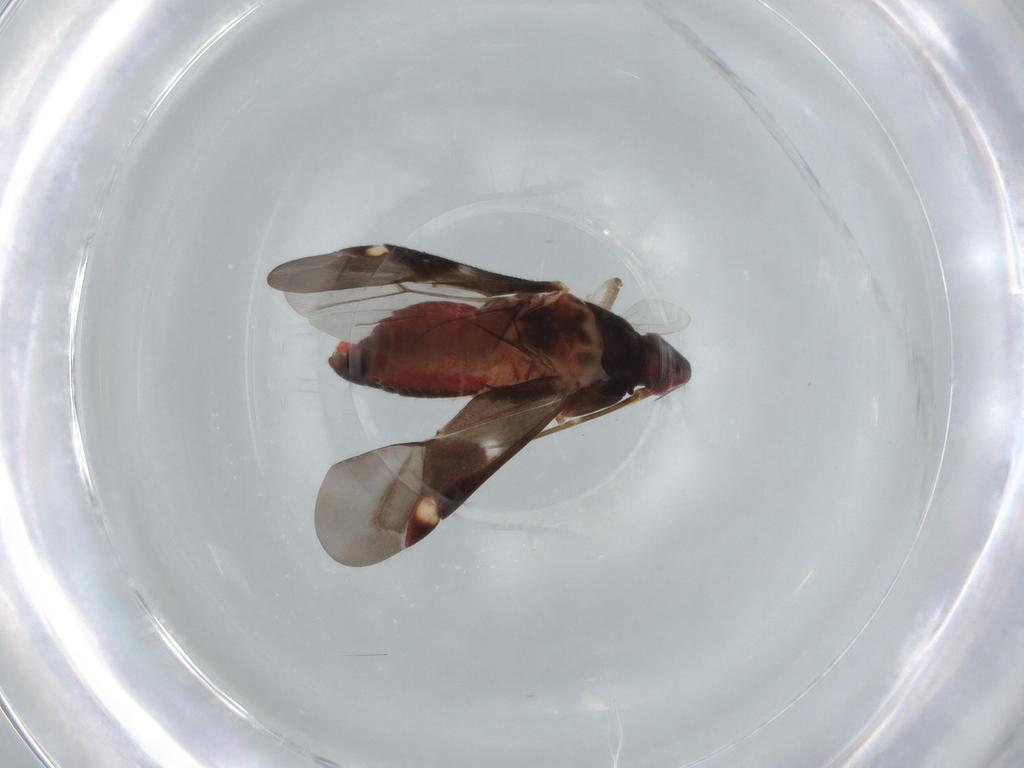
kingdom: Animalia
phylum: Arthropoda
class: Insecta
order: Hemiptera
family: Miridae
